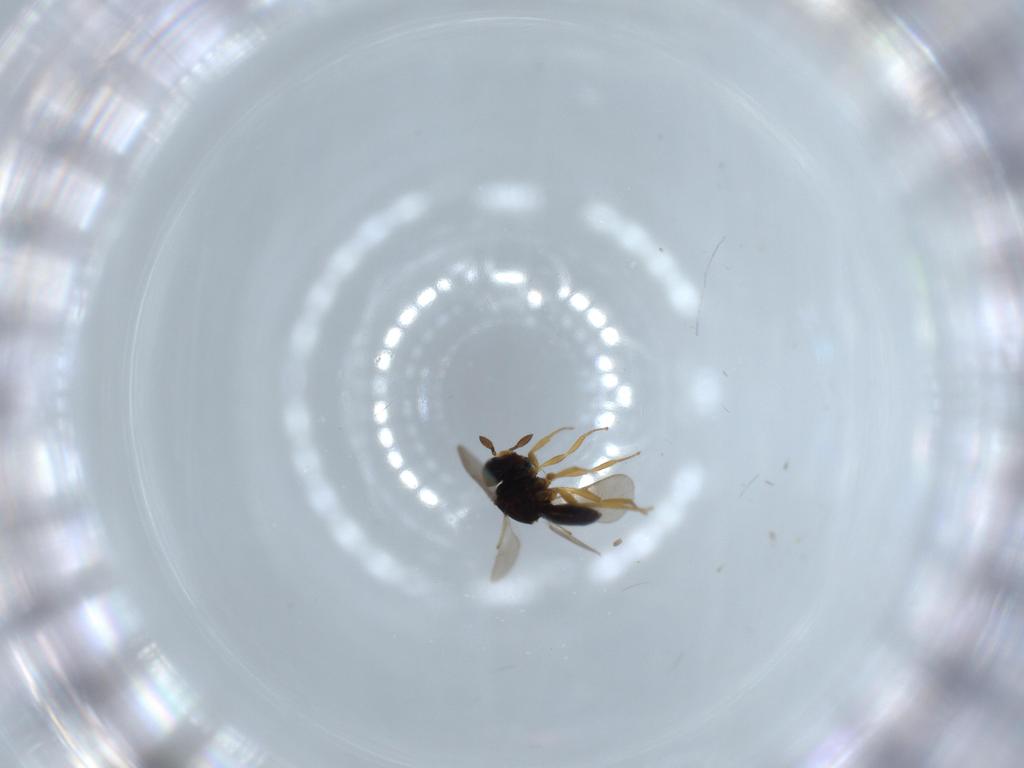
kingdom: Animalia
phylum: Arthropoda
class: Insecta
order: Hymenoptera
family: Scelionidae
